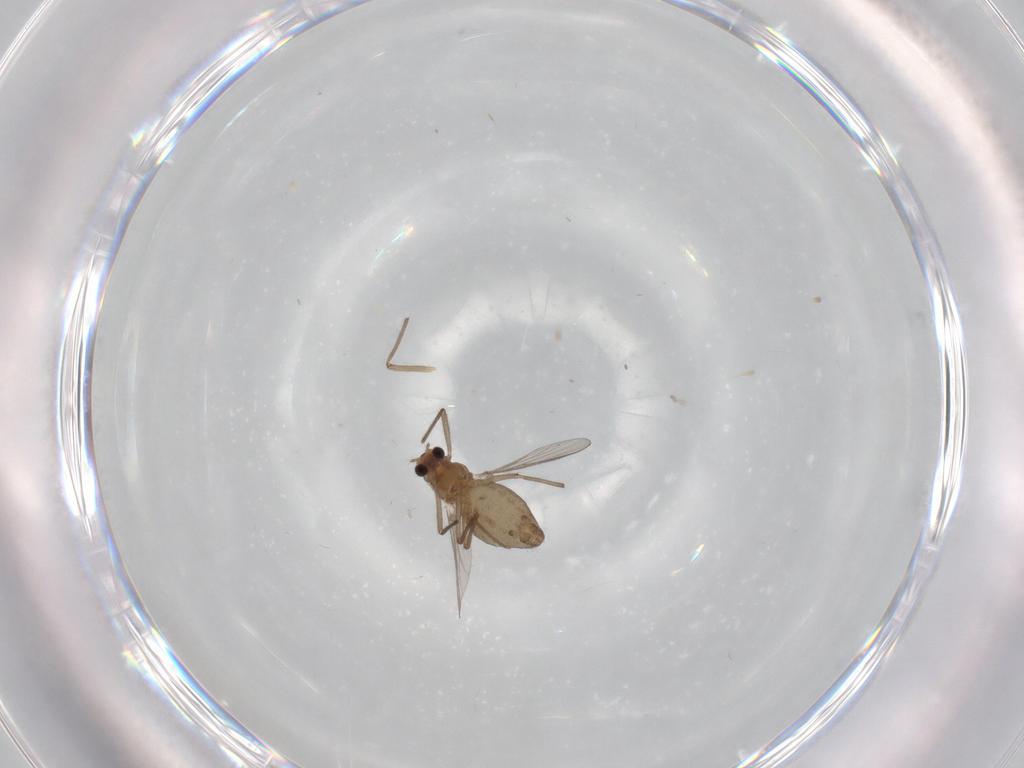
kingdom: Animalia
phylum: Arthropoda
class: Insecta
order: Diptera
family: Chironomidae
